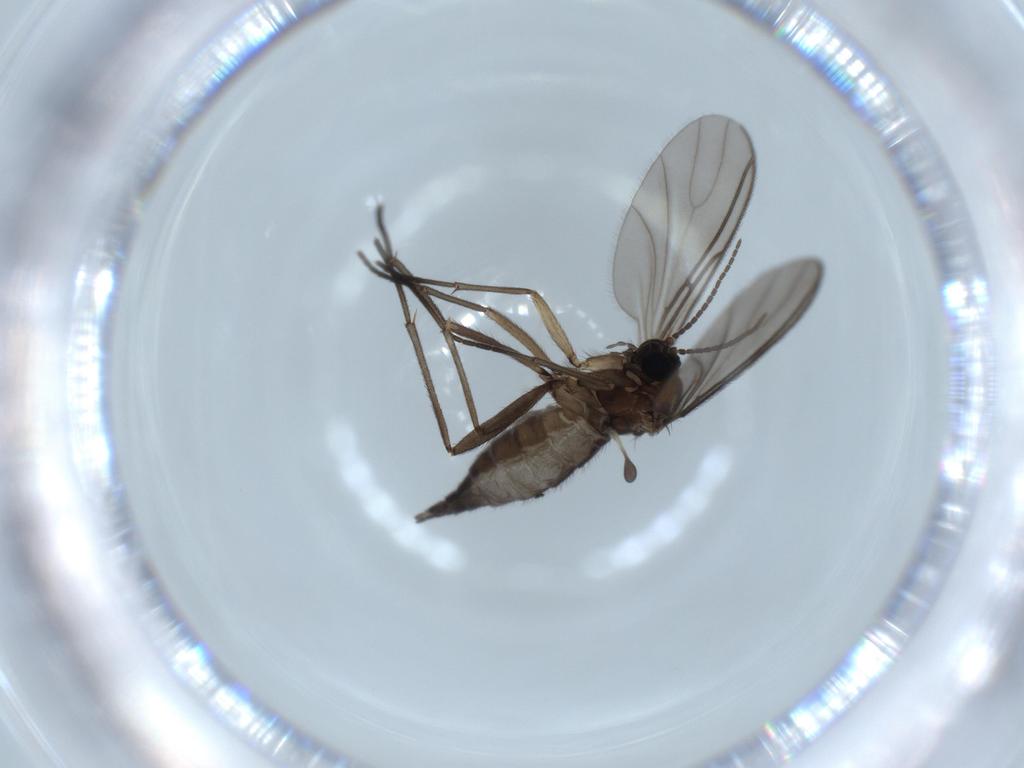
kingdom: Animalia
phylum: Arthropoda
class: Insecta
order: Diptera
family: Sciaridae
